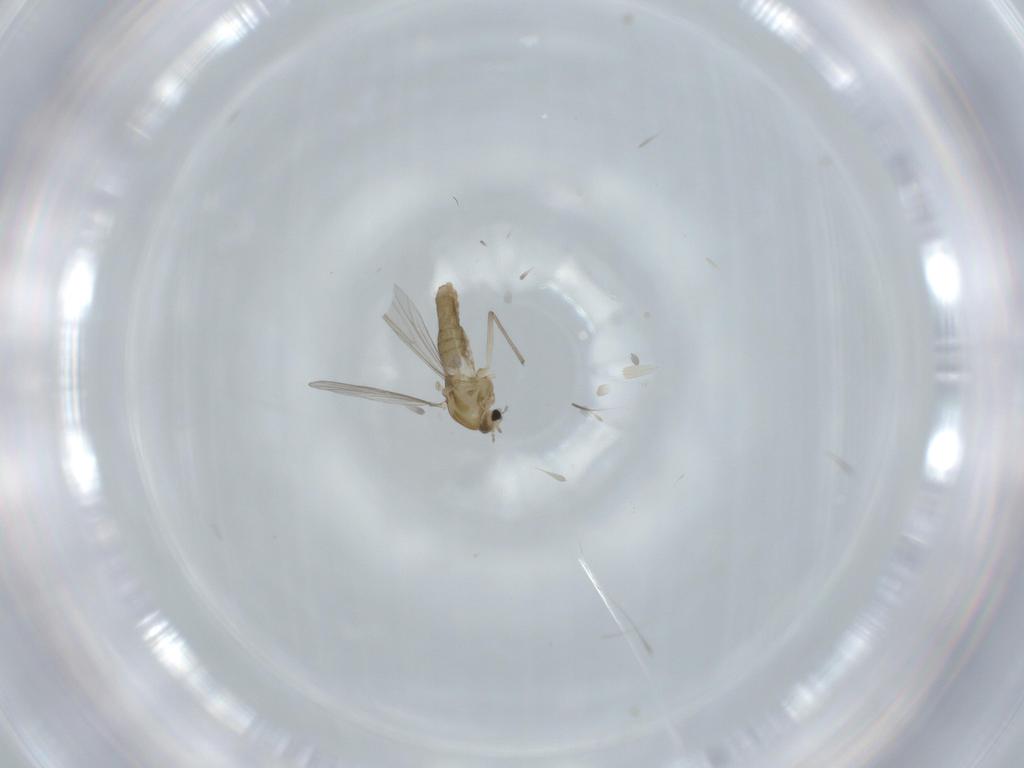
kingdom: Animalia
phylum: Arthropoda
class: Insecta
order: Diptera
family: Chironomidae
